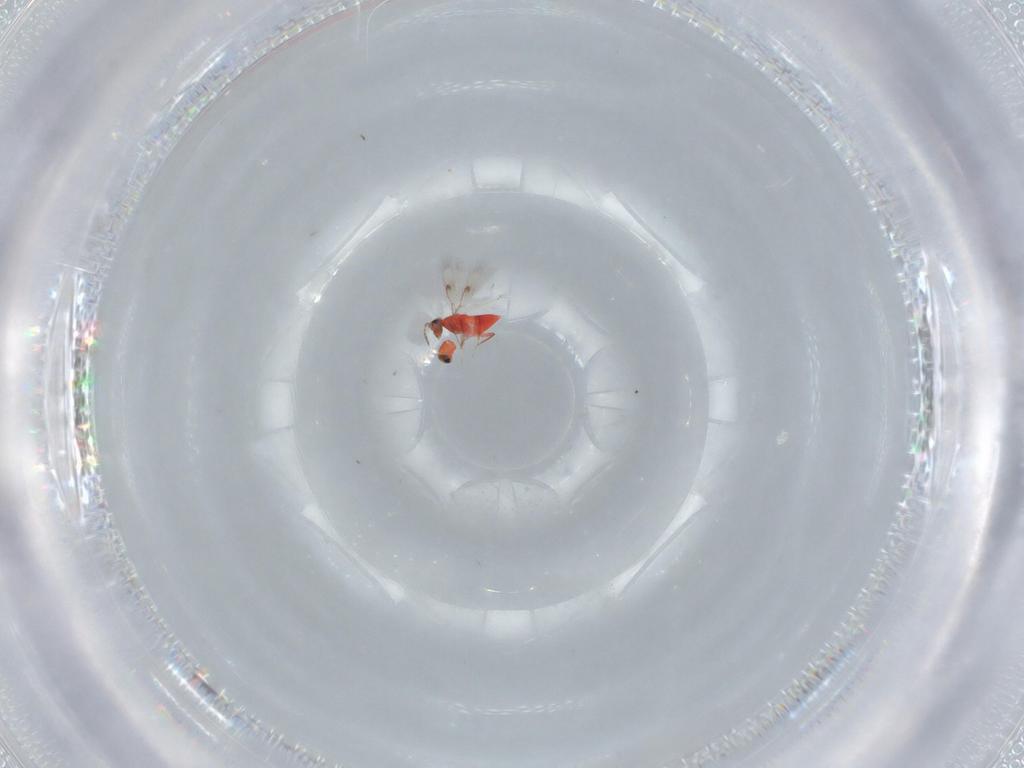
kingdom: Animalia
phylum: Arthropoda
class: Insecta
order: Hymenoptera
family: Trichogrammatidae
